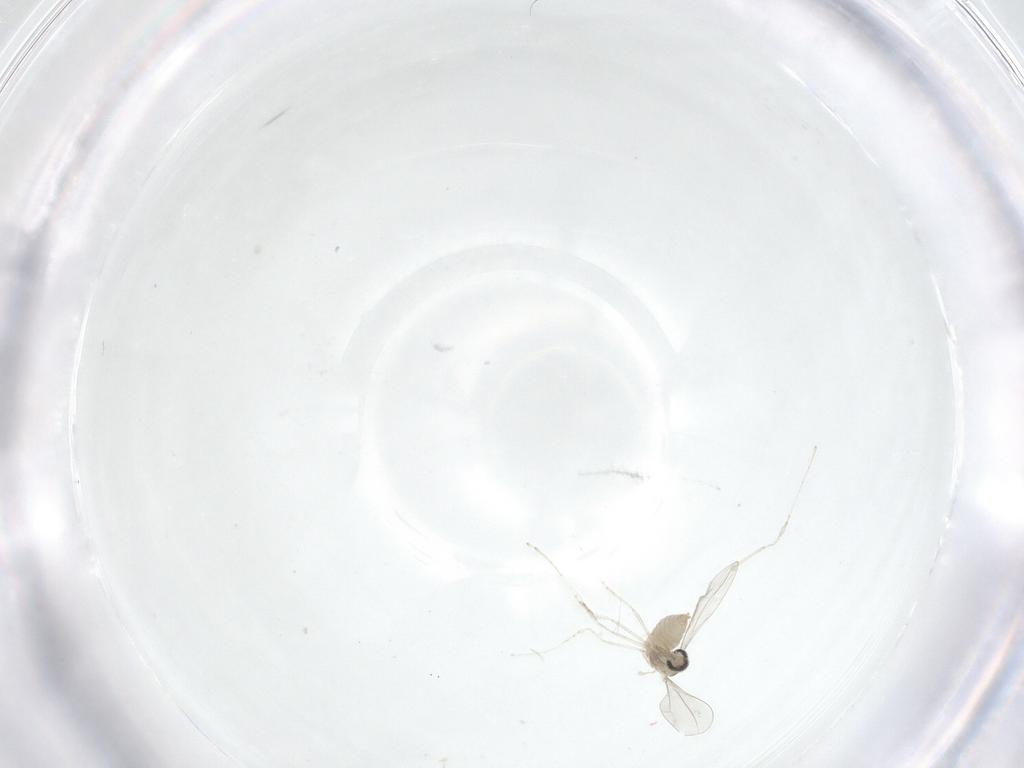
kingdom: Animalia
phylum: Arthropoda
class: Insecta
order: Diptera
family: Cecidomyiidae
